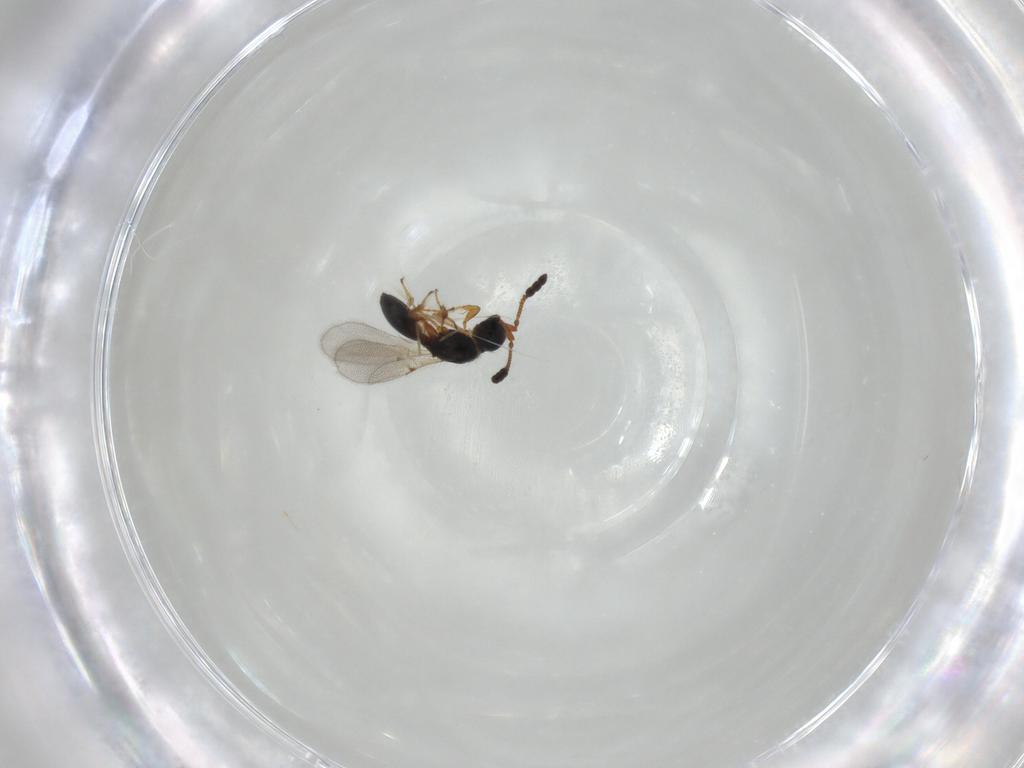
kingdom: Animalia
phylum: Arthropoda
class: Insecta
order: Hymenoptera
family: Diapriidae
